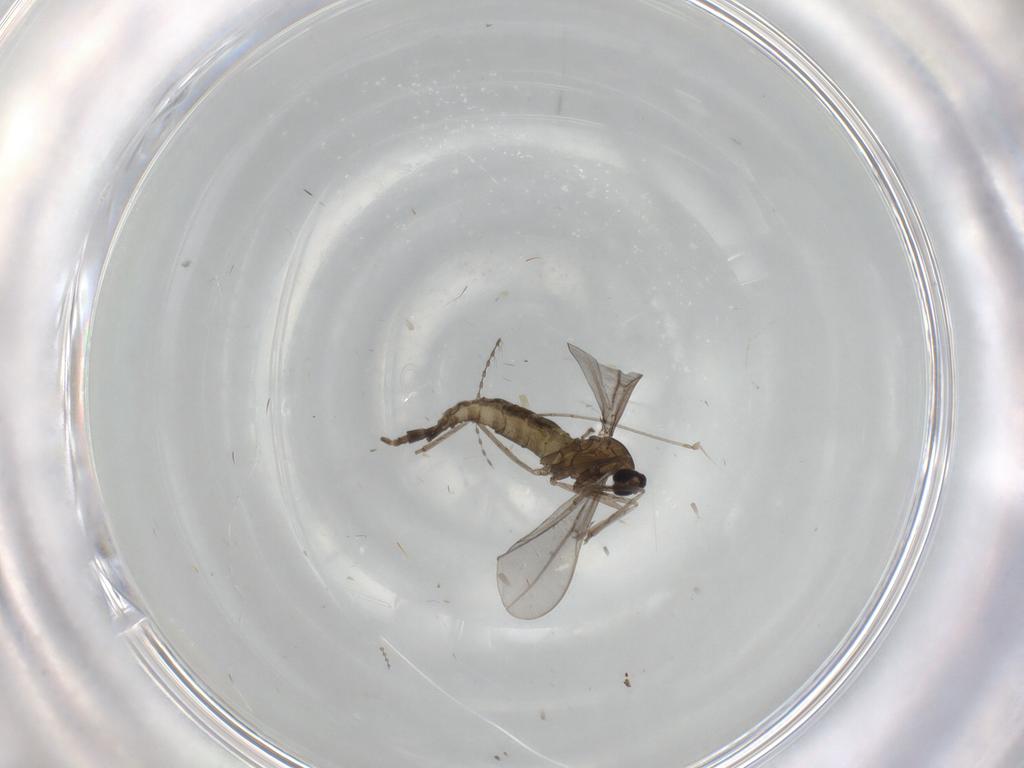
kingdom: Animalia
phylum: Arthropoda
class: Insecta
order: Diptera
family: Cecidomyiidae
